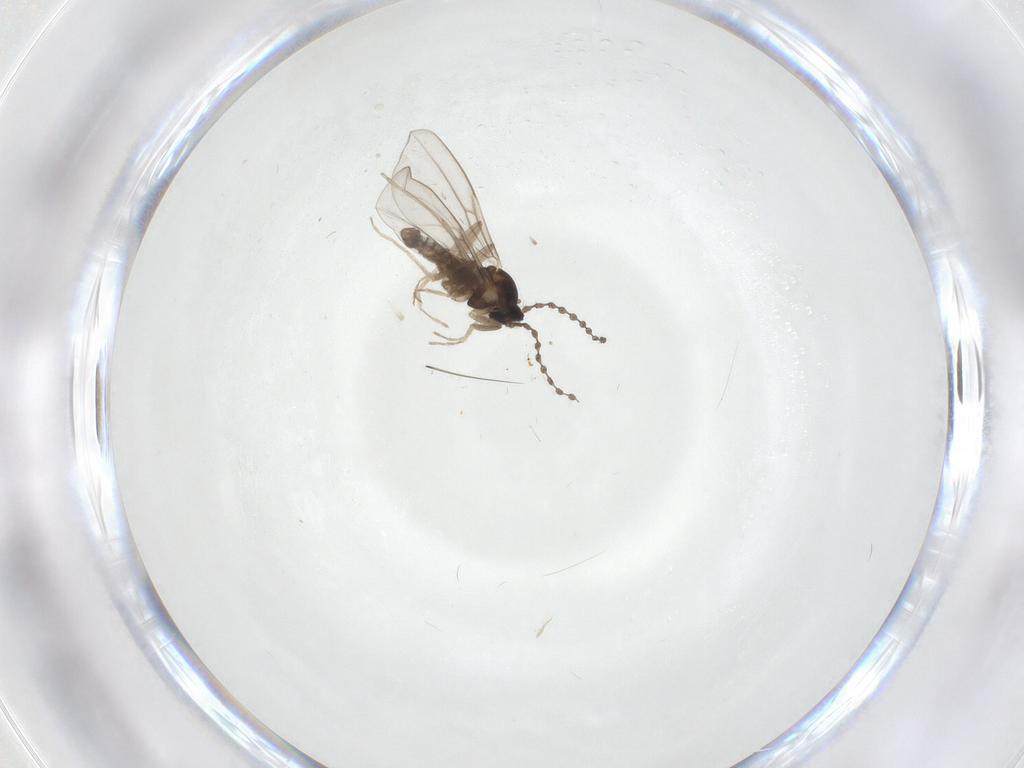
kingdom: Animalia
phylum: Arthropoda
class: Insecta
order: Diptera
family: Cecidomyiidae
